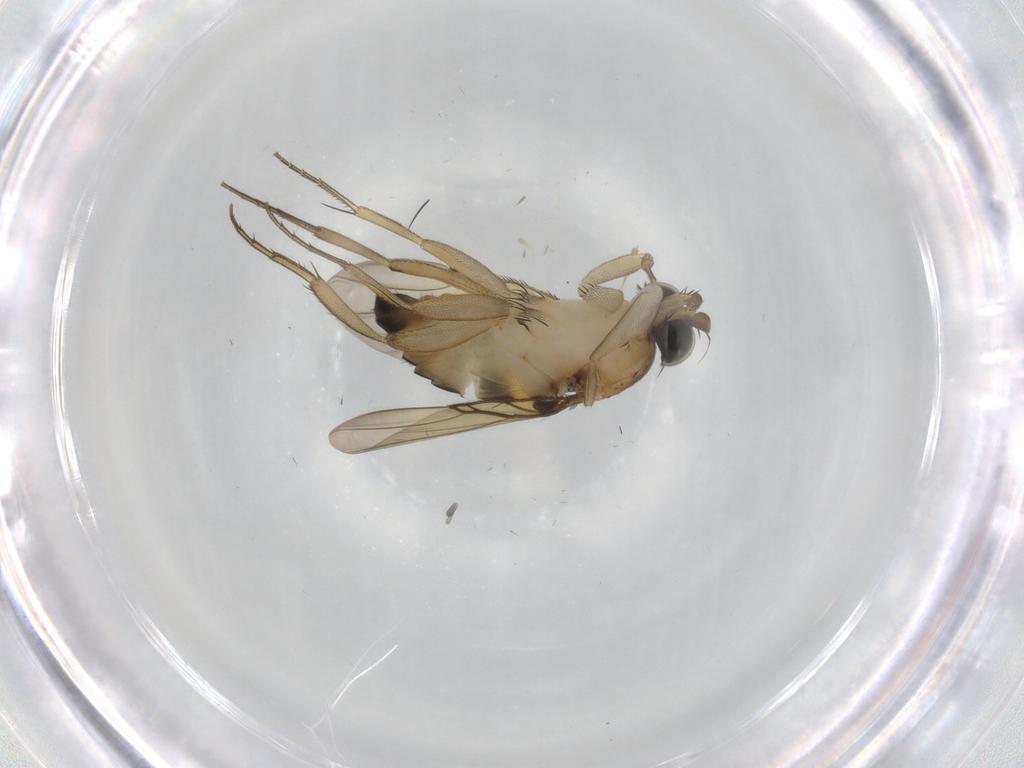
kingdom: Animalia
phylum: Arthropoda
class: Insecta
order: Diptera
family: Phoridae
